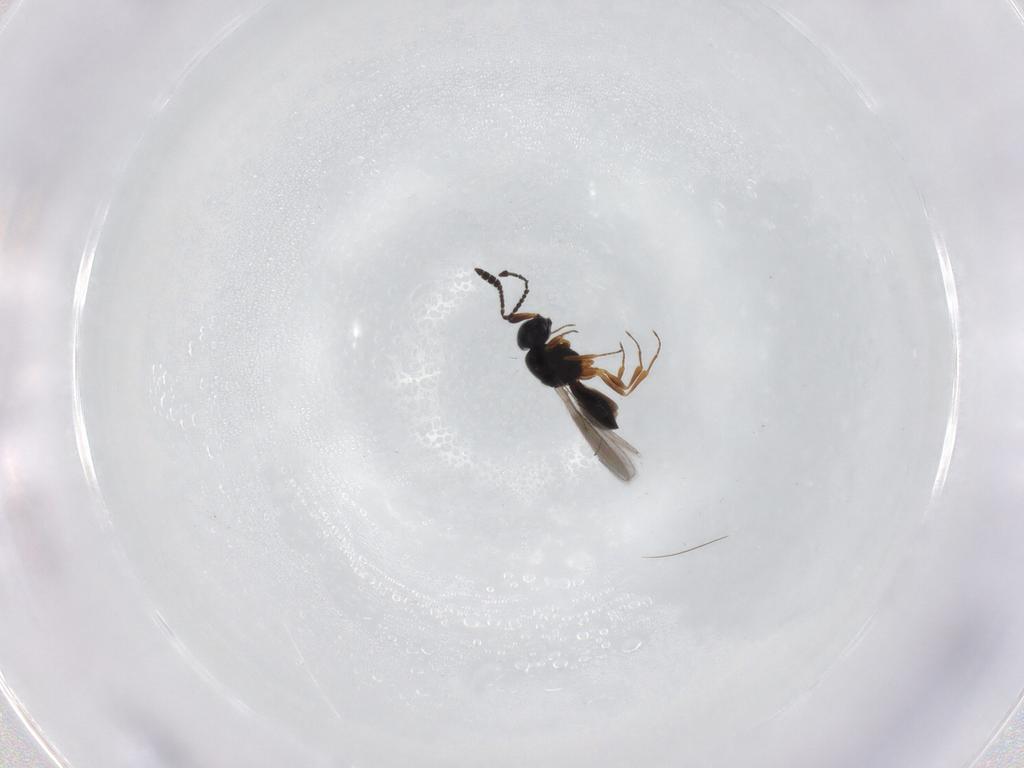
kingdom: Animalia
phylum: Arthropoda
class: Insecta
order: Hymenoptera
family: Scelionidae
